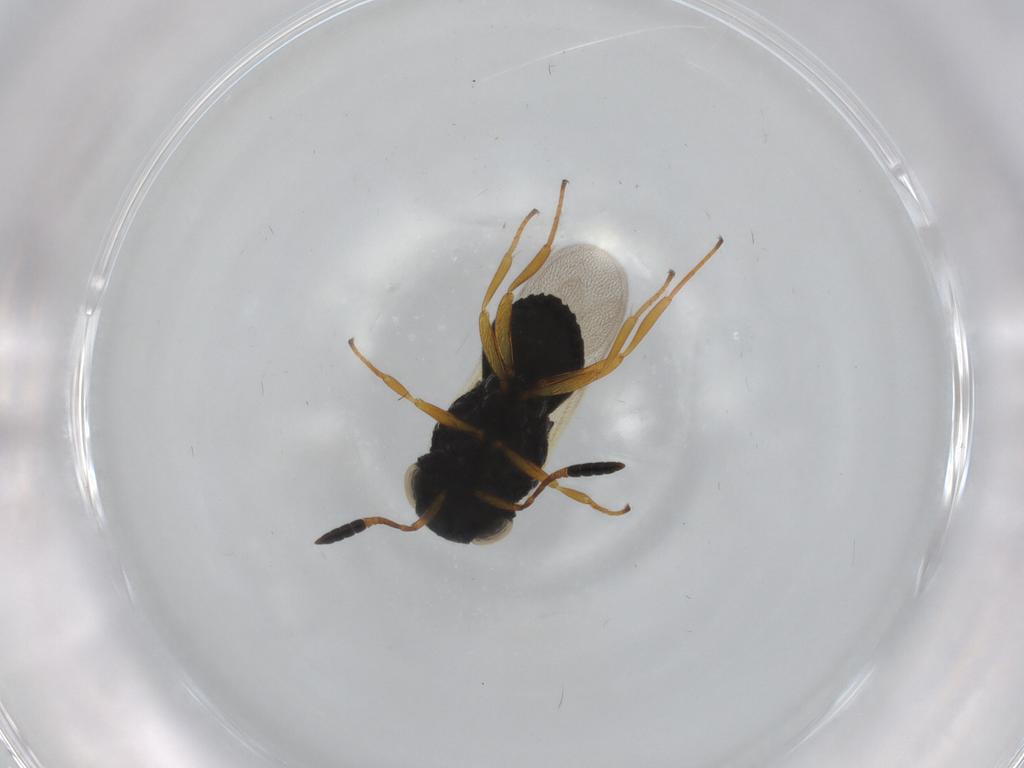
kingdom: Animalia
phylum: Arthropoda
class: Insecta
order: Hymenoptera
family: Scelionidae
